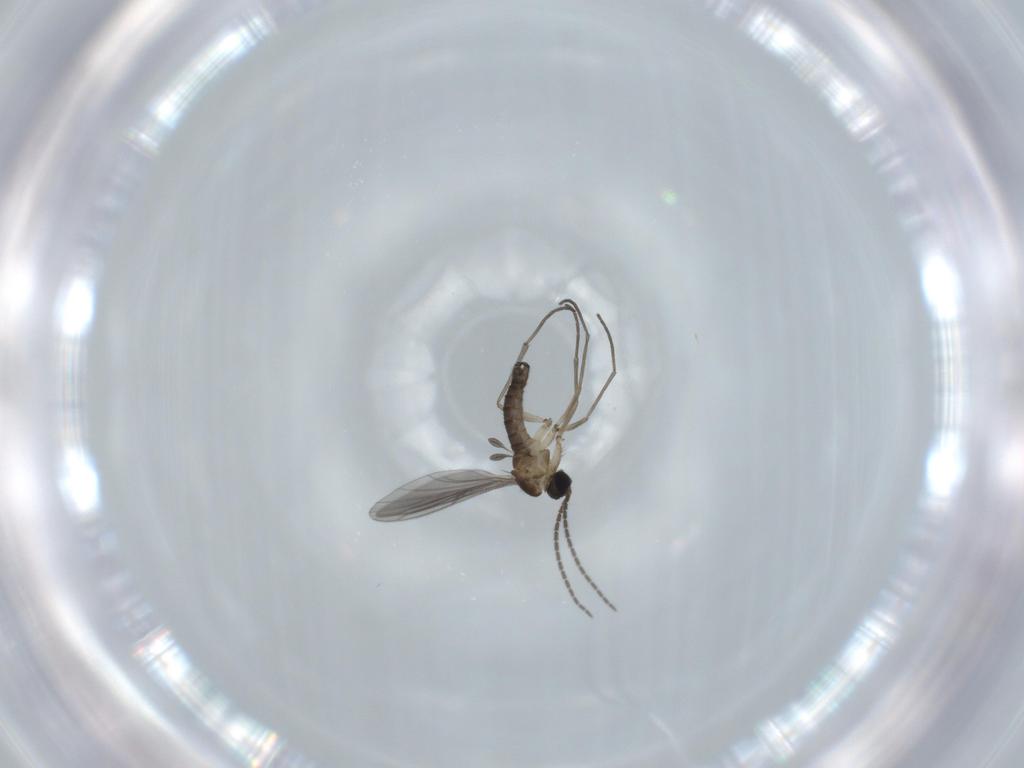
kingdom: Animalia
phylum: Arthropoda
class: Insecta
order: Diptera
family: Sciaridae
